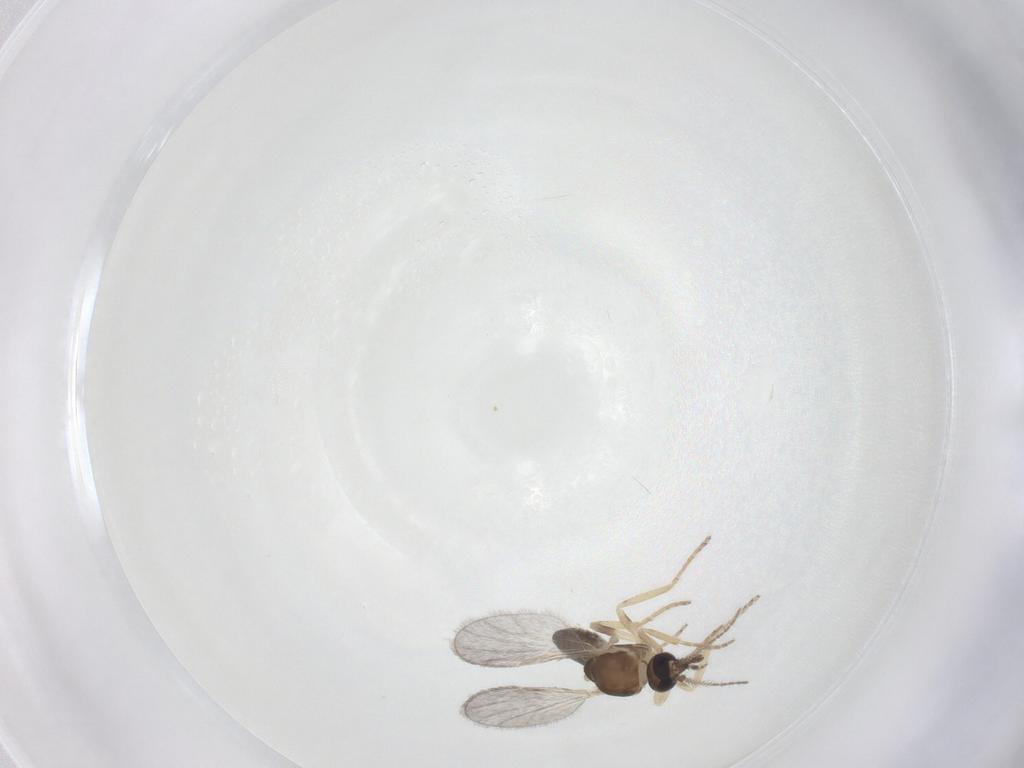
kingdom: Animalia
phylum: Arthropoda
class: Insecta
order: Diptera
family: Ceratopogonidae
